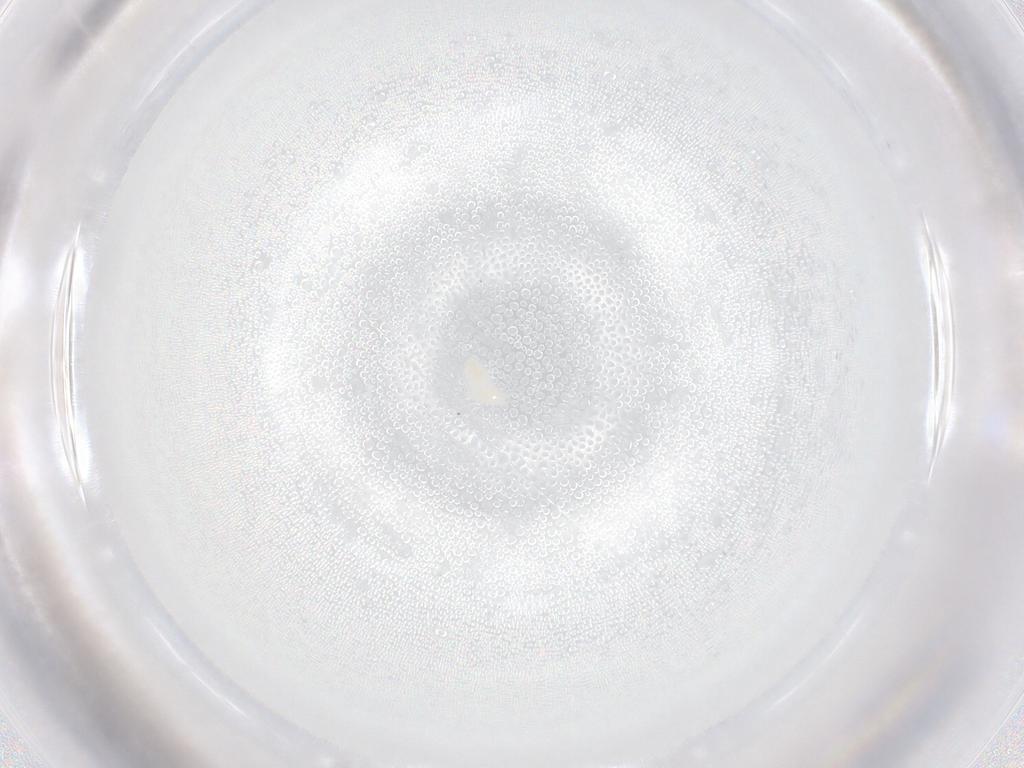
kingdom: Animalia
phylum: Arthropoda
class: Arachnida
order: Trombidiformes
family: Eupodidae
